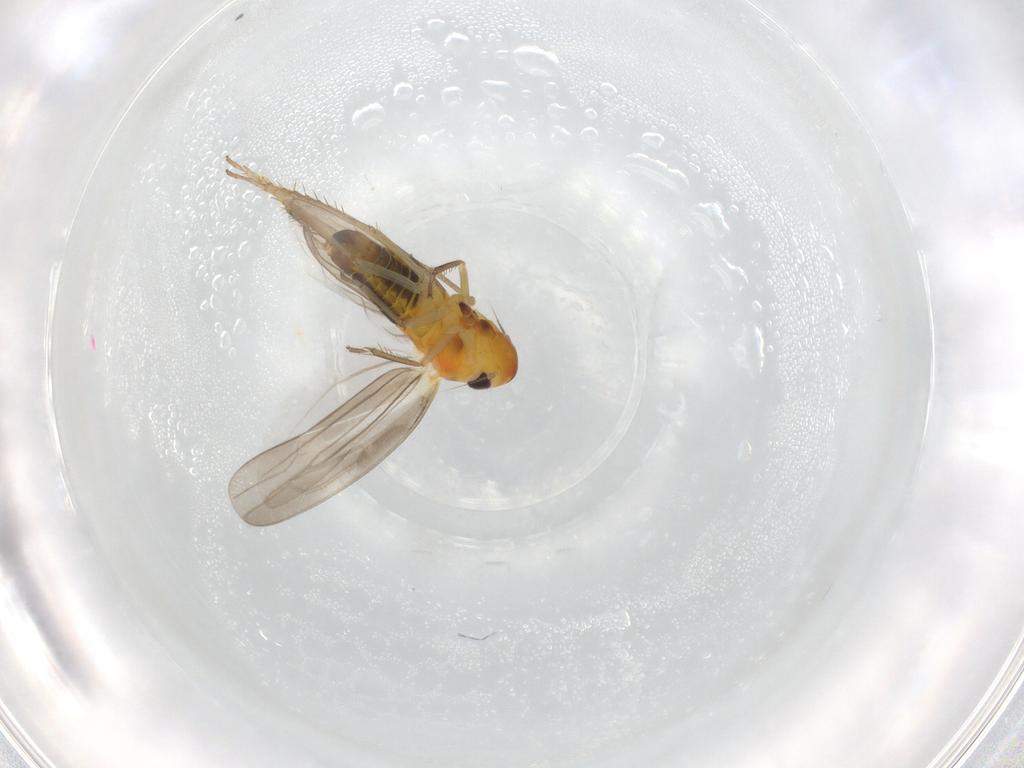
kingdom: Animalia
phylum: Arthropoda
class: Insecta
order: Hemiptera
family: Cicadellidae
